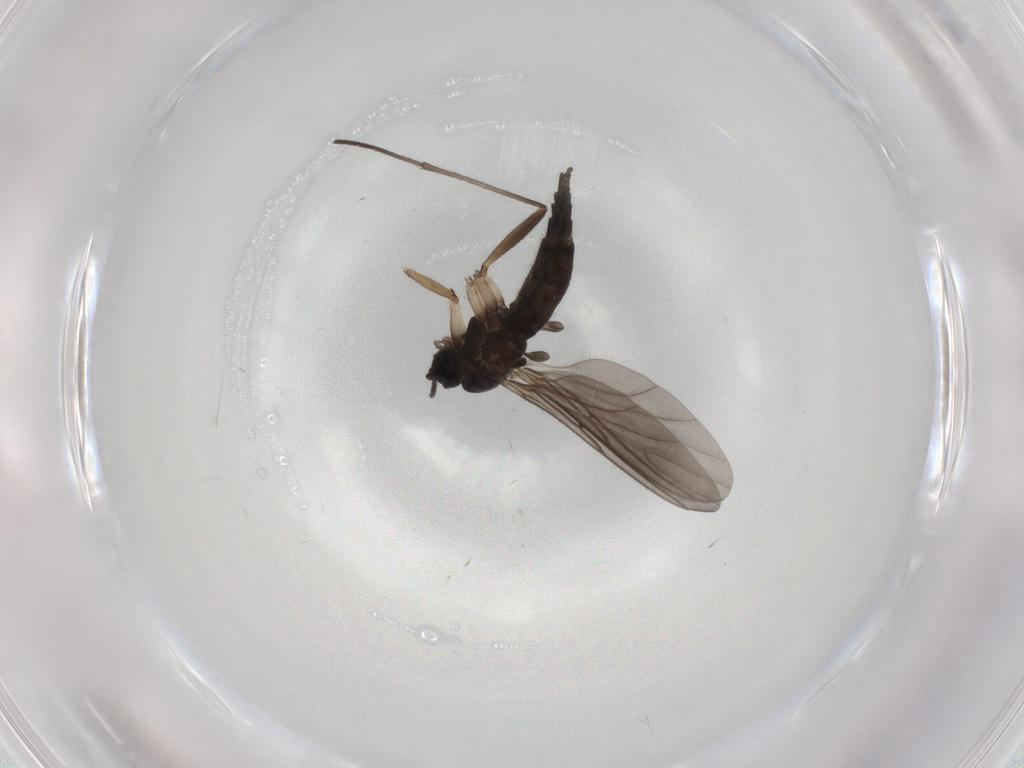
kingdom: Animalia
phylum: Arthropoda
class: Insecta
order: Diptera
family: Sciaridae
